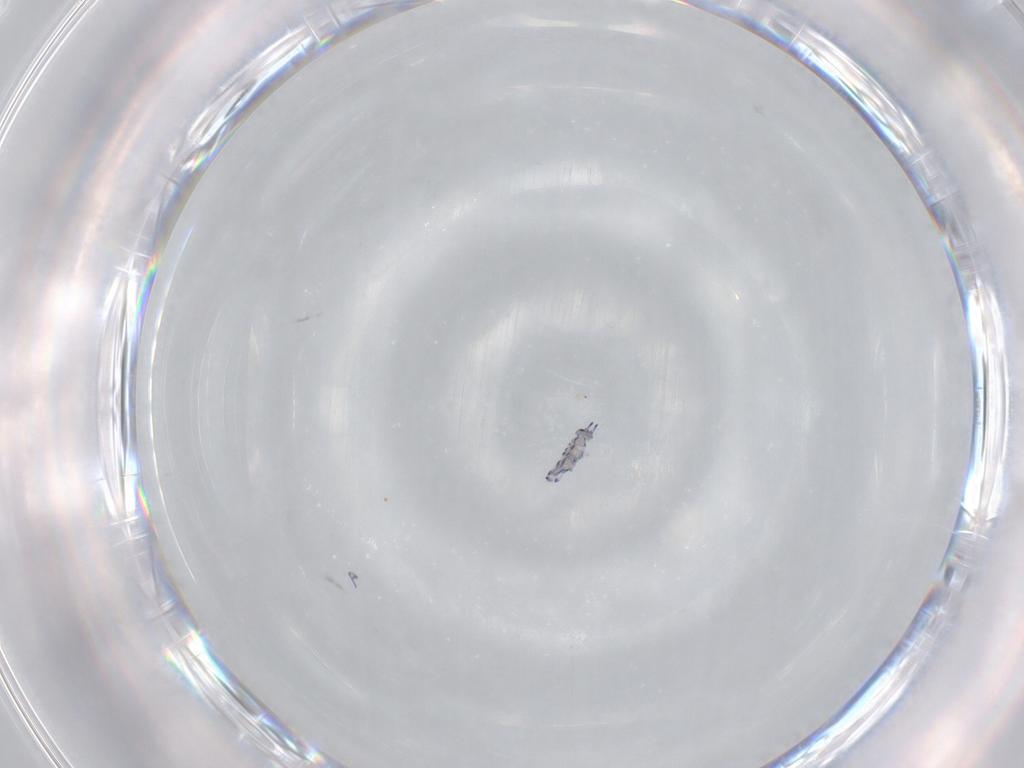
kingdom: Animalia
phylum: Arthropoda
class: Collembola
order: Entomobryomorpha
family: Entomobryidae
